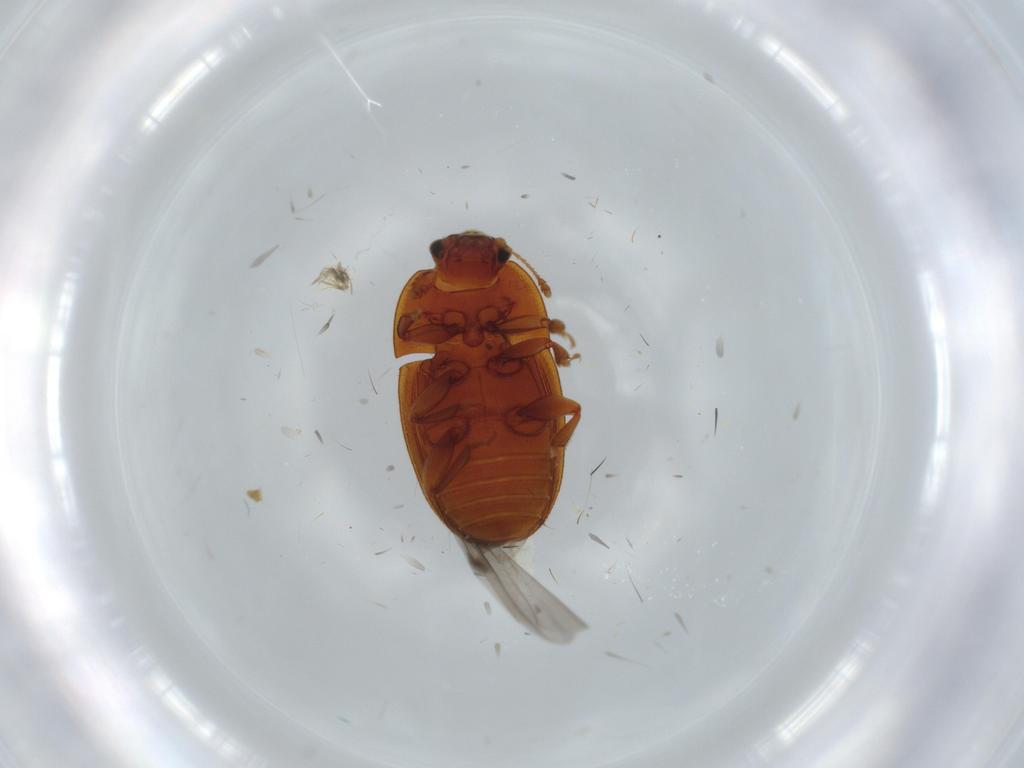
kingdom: Animalia
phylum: Arthropoda
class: Insecta
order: Coleoptera
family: Nitidulidae
